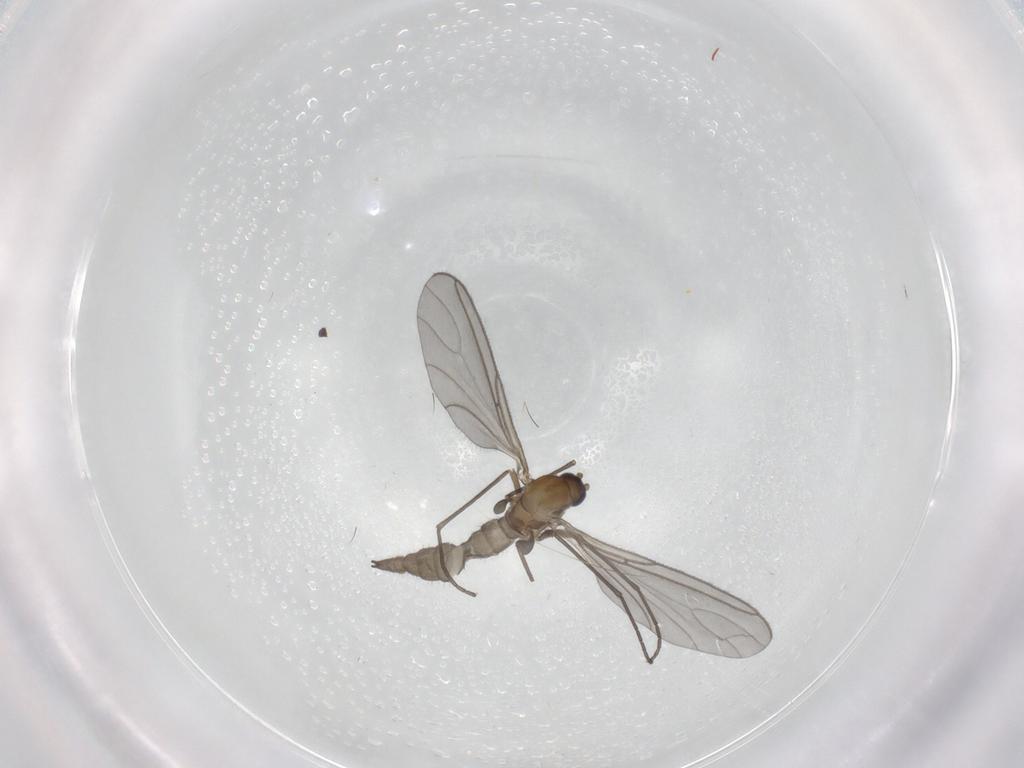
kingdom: Animalia
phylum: Arthropoda
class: Insecta
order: Diptera
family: Sciaridae
